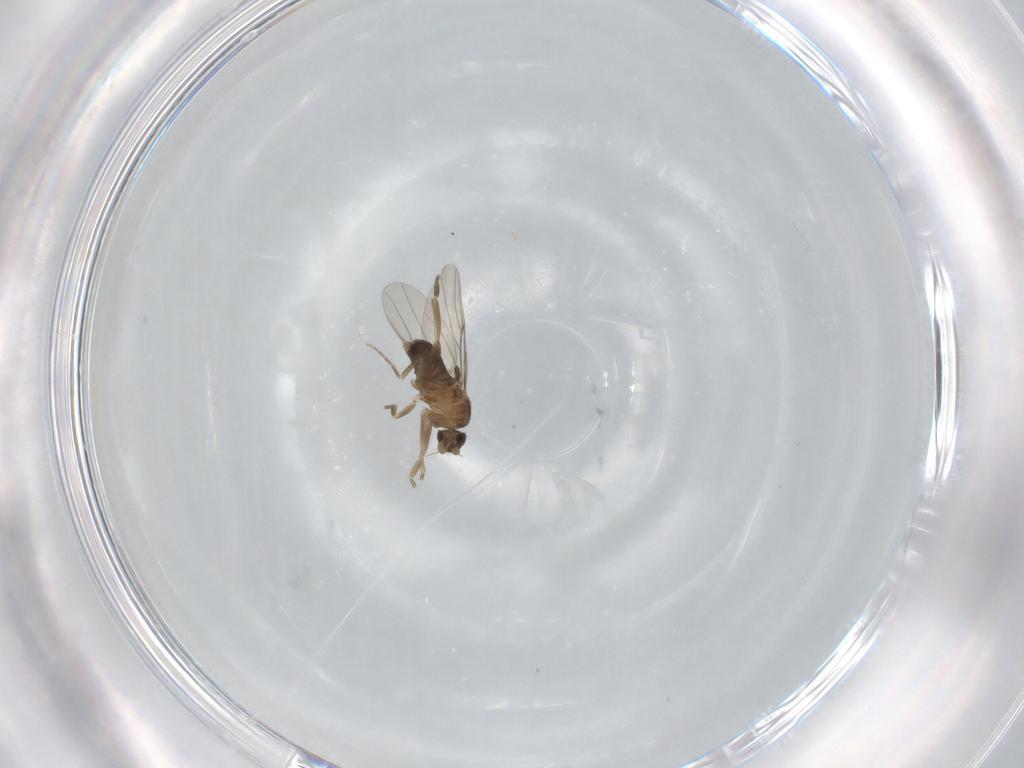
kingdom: Animalia
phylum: Arthropoda
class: Insecta
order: Diptera
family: Phoridae
